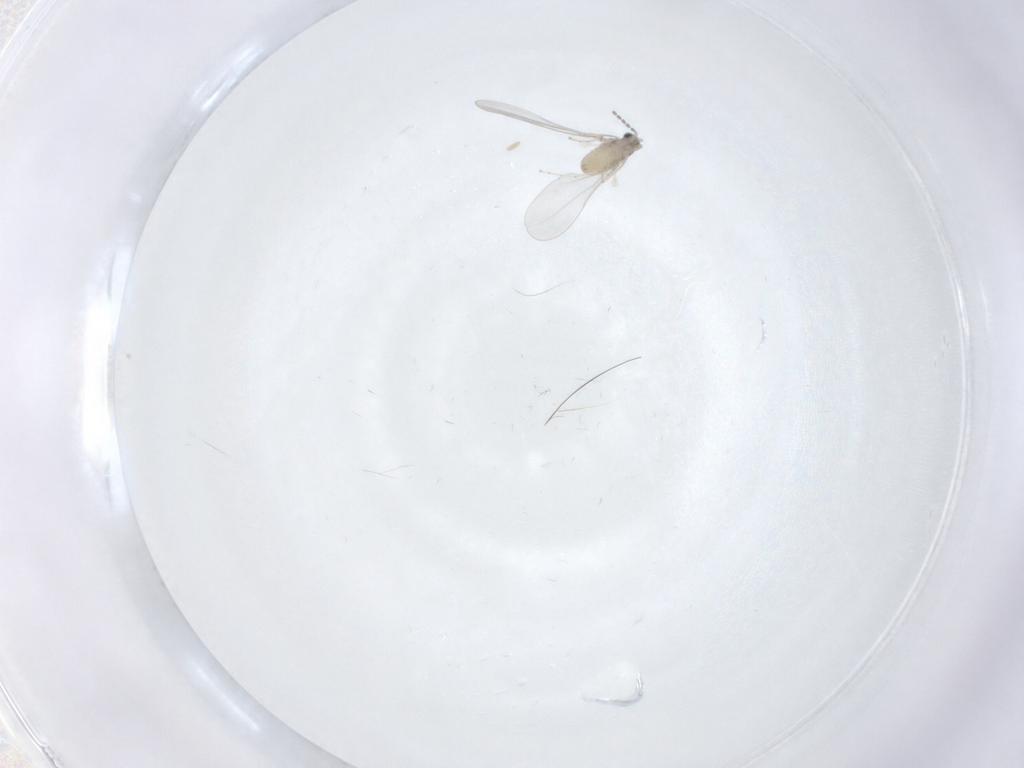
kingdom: Animalia
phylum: Arthropoda
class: Insecta
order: Diptera
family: Cecidomyiidae
